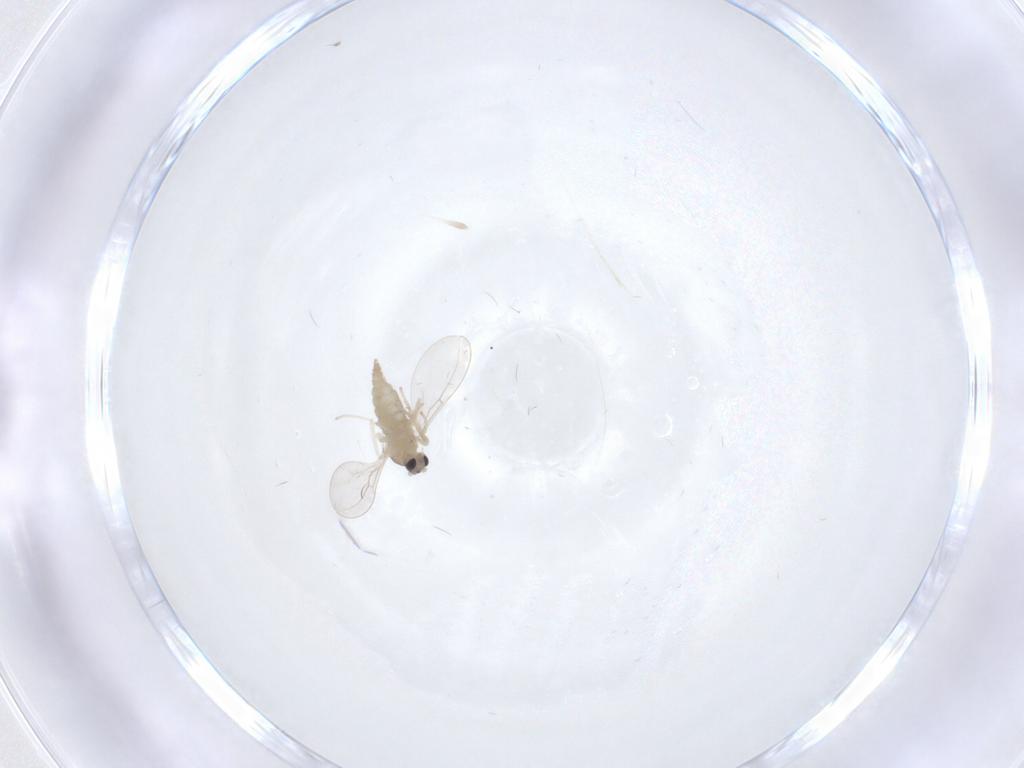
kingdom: Animalia
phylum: Arthropoda
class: Insecta
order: Diptera
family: Cecidomyiidae
